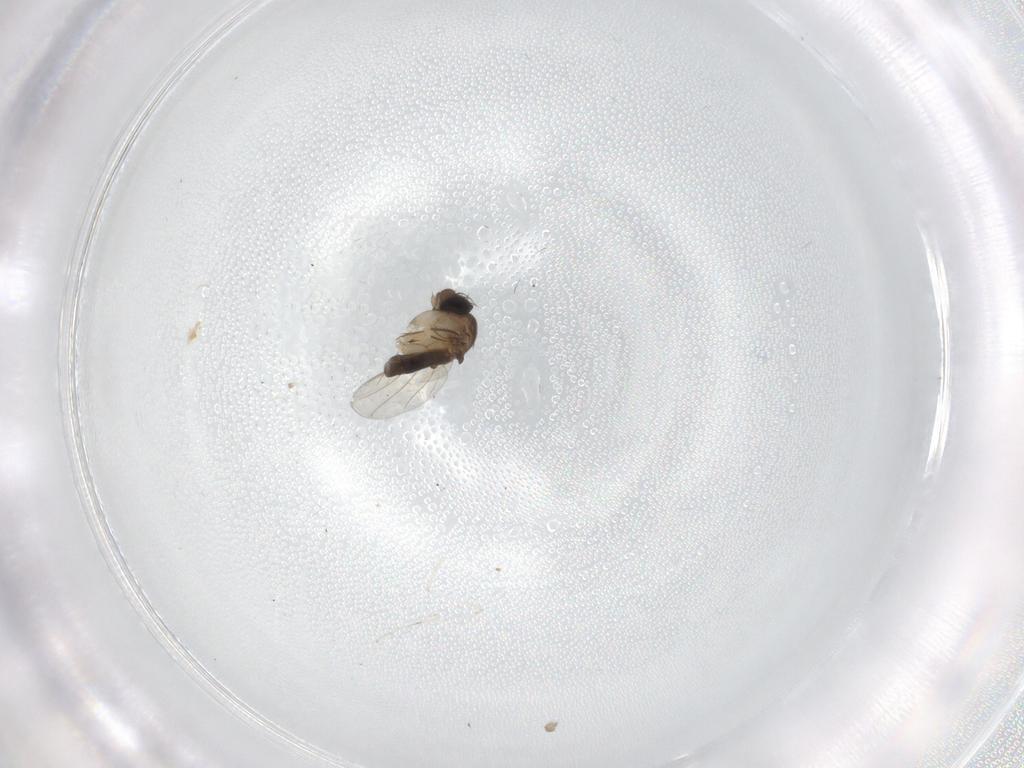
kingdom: Animalia
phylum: Arthropoda
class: Insecta
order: Diptera
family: Phoridae
